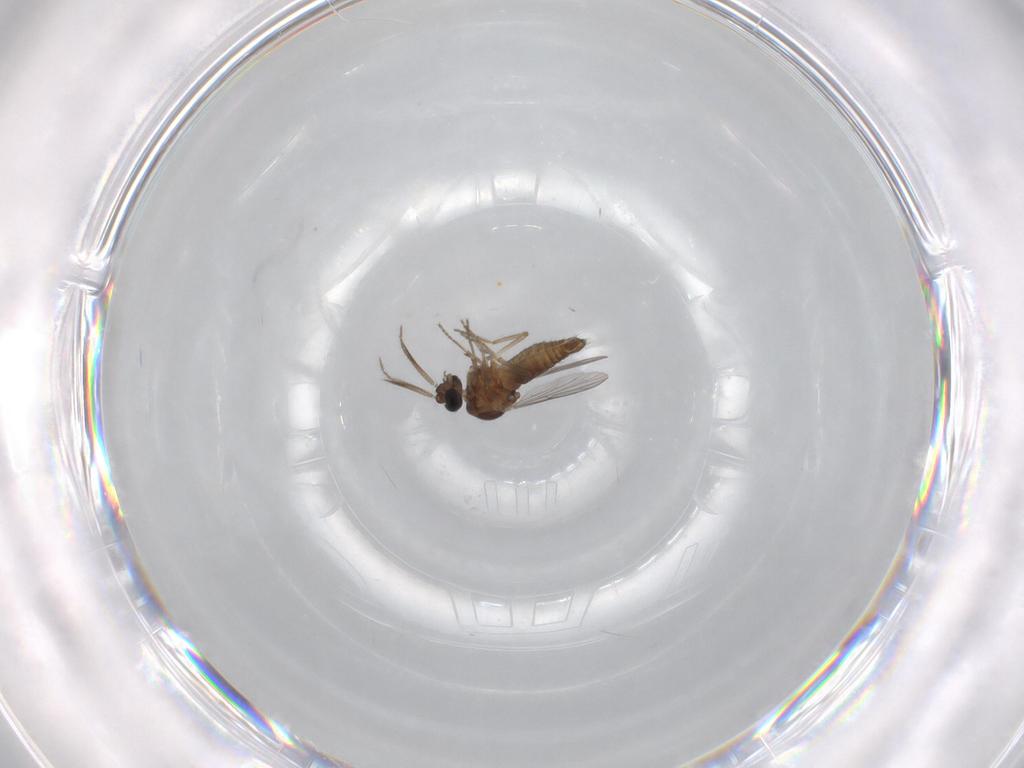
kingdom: Animalia
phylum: Arthropoda
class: Insecta
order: Diptera
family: Ceratopogonidae
